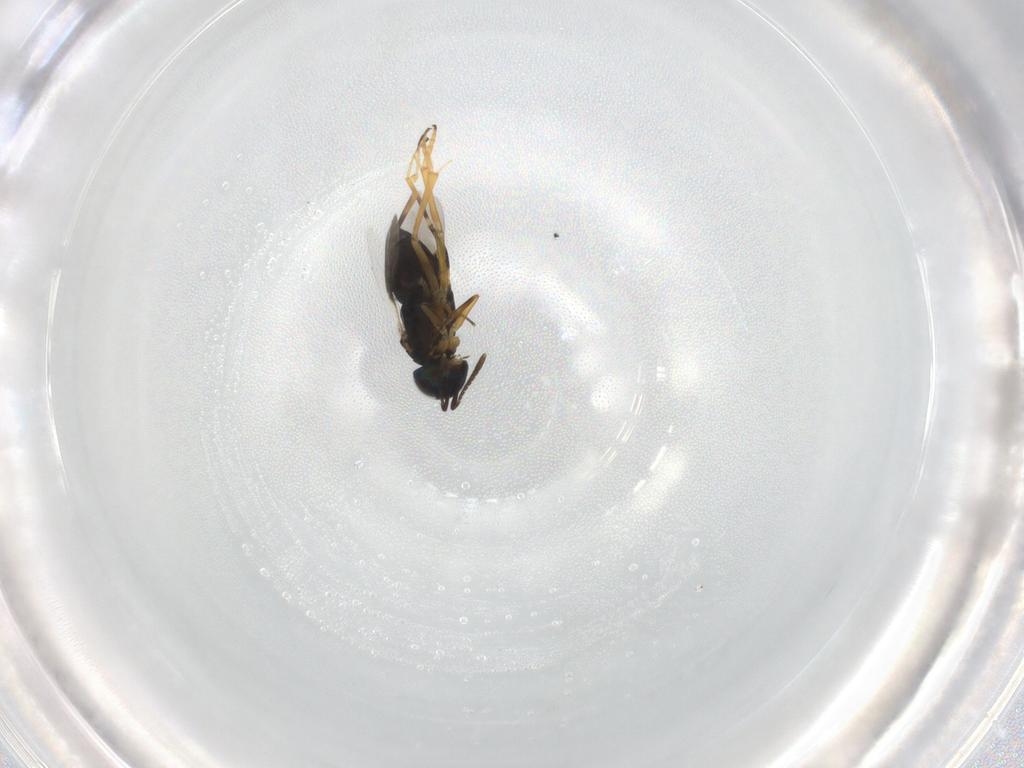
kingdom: Animalia
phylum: Arthropoda
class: Insecta
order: Hymenoptera
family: Encyrtidae
